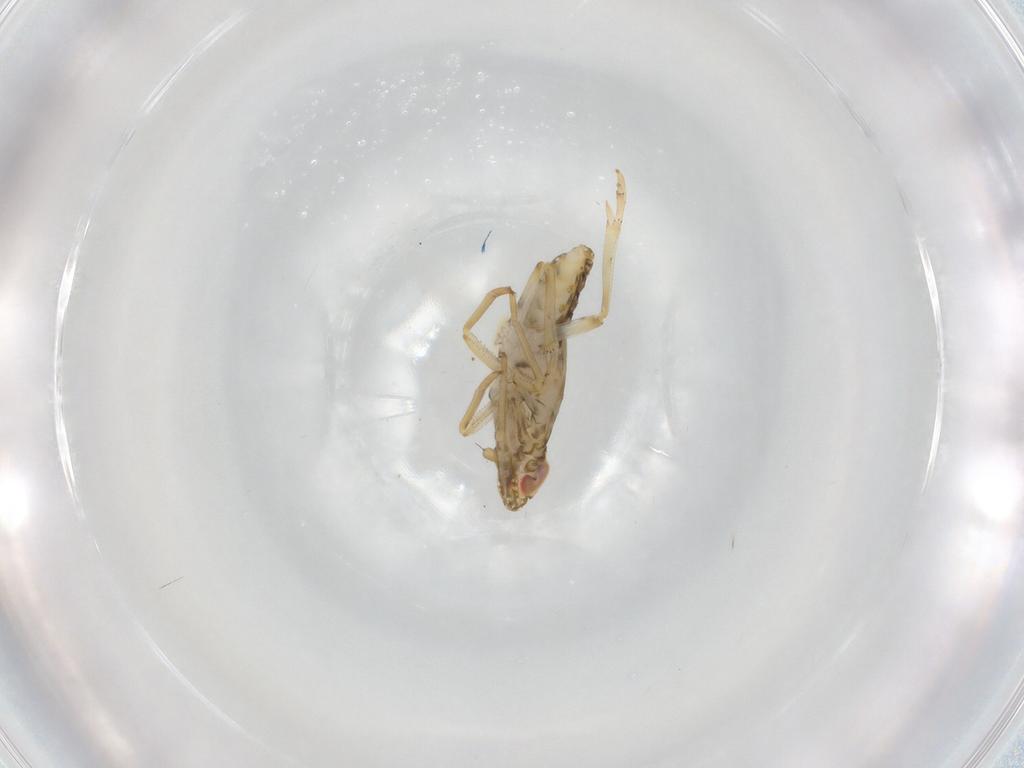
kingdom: Animalia
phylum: Arthropoda
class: Insecta
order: Hemiptera
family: Delphacidae
